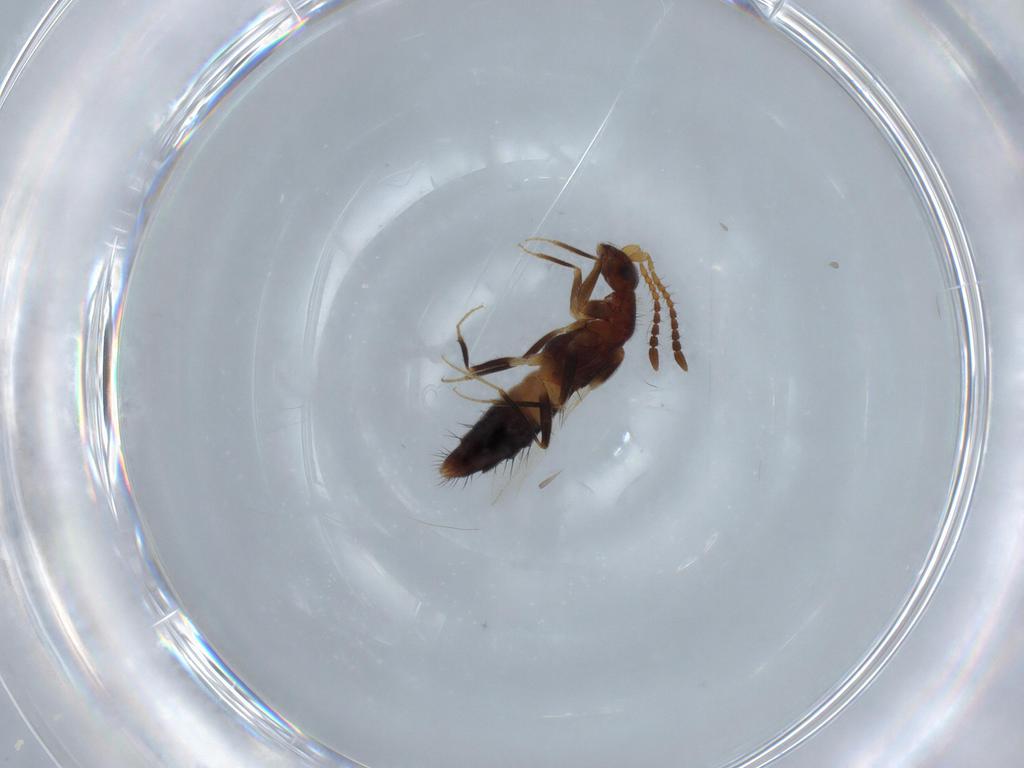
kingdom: Animalia
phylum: Arthropoda
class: Insecta
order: Coleoptera
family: Staphylinidae
